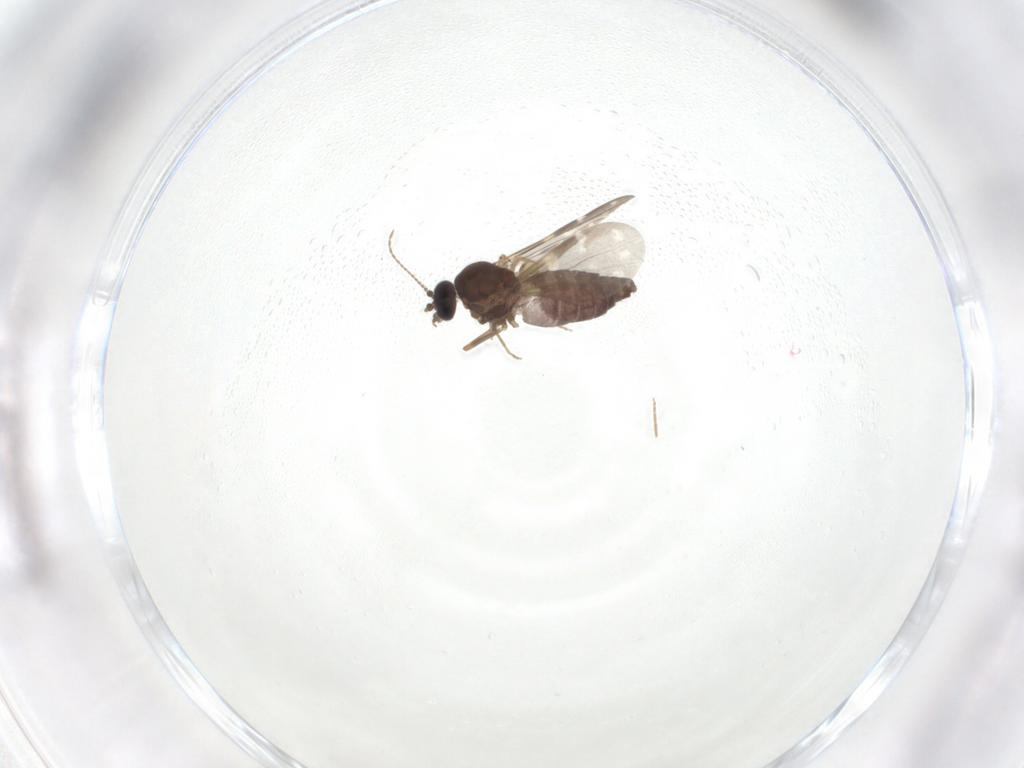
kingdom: Animalia
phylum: Arthropoda
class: Insecta
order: Diptera
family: Ceratopogonidae
